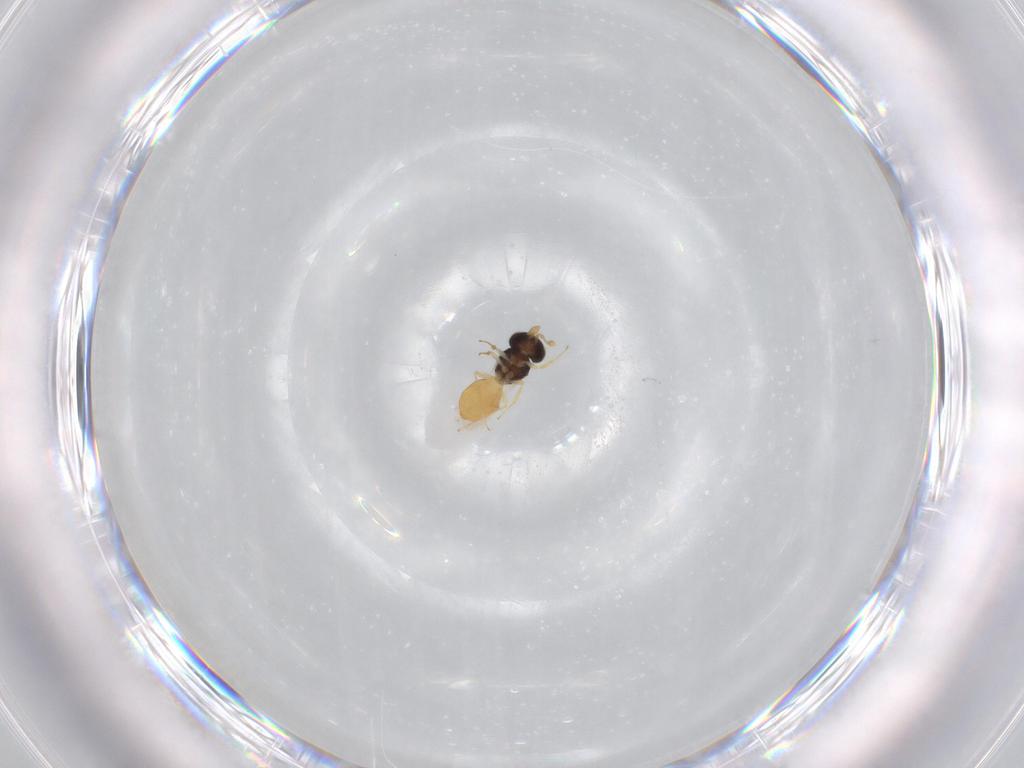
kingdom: Animalia
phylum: Arthropoda
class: Insecta
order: Hymenoptera
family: Scelionidae
